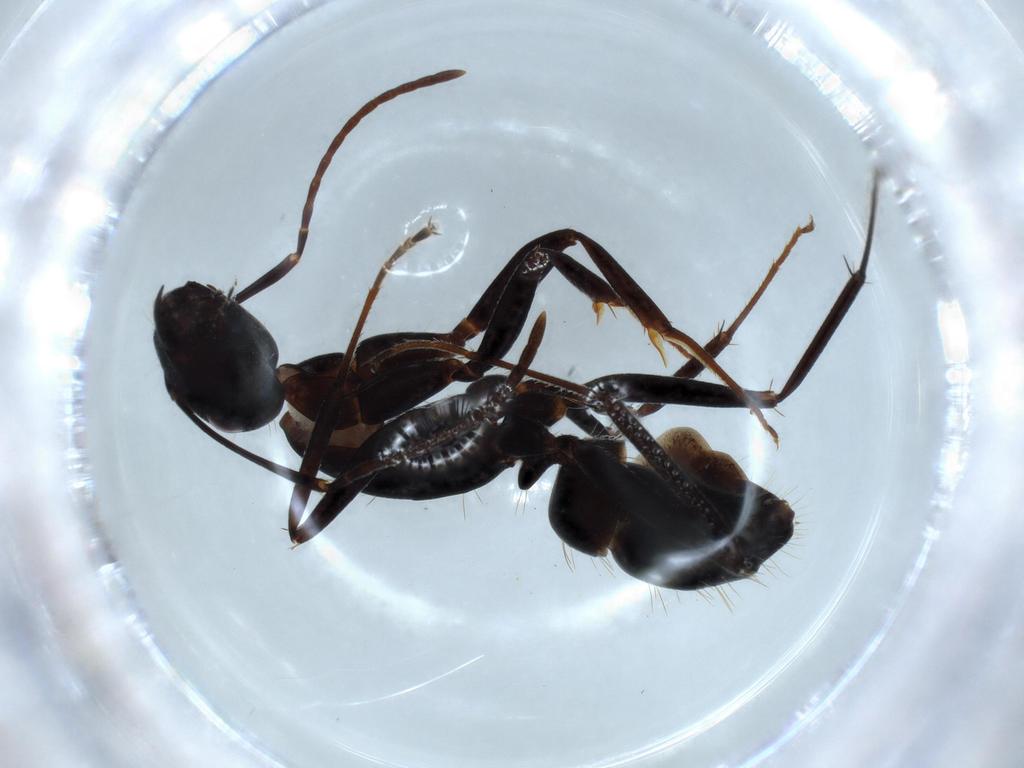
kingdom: Animalia
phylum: Arthropoda
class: Insecta
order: Hymenoptera
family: Formicidae
